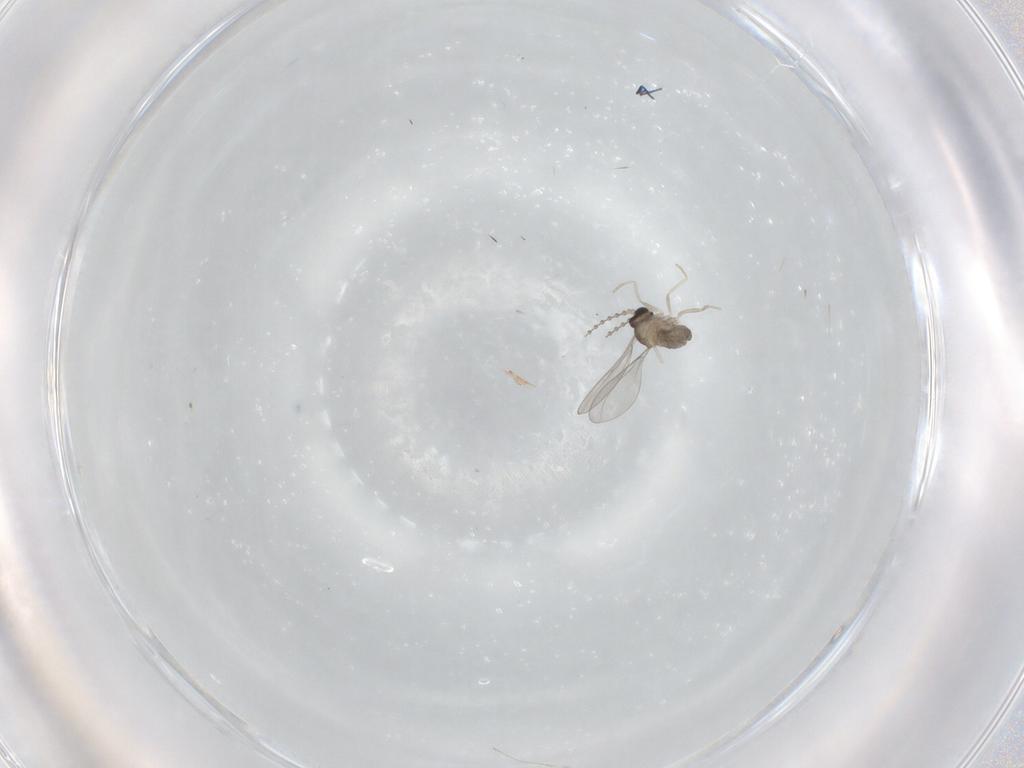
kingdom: Animalia
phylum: Arthropoda
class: Insecta
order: Diptera
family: Cecidomyiidae
